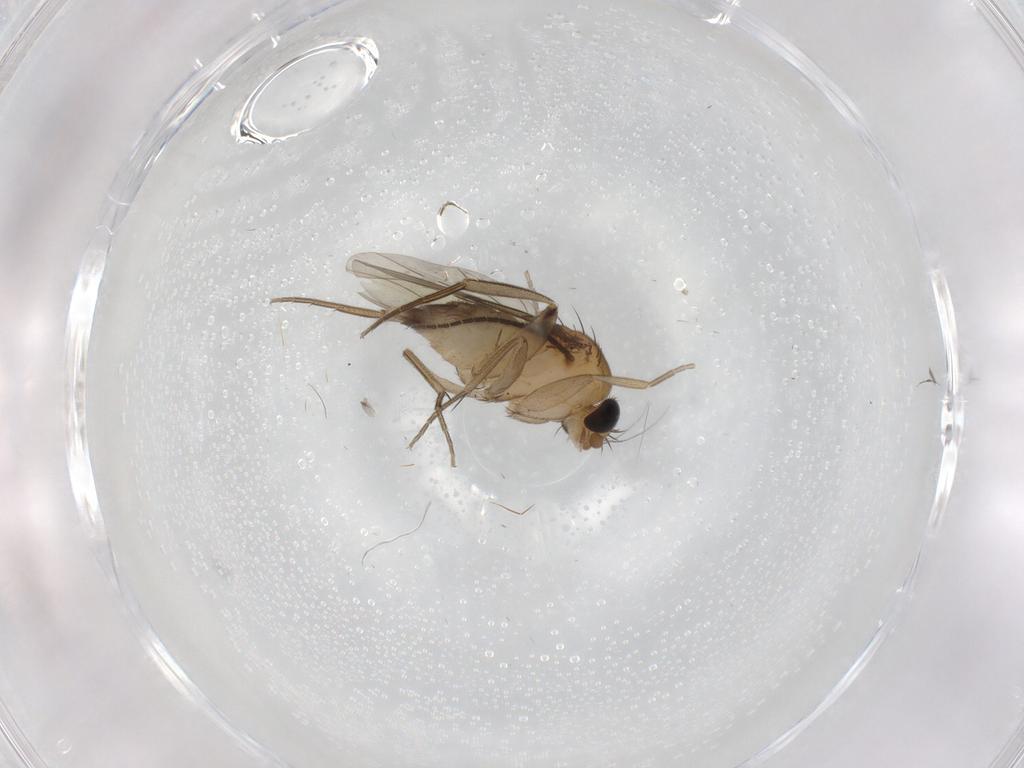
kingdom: Animalia
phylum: Arthropoda
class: Insecta
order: Diptera
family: Phoridae
